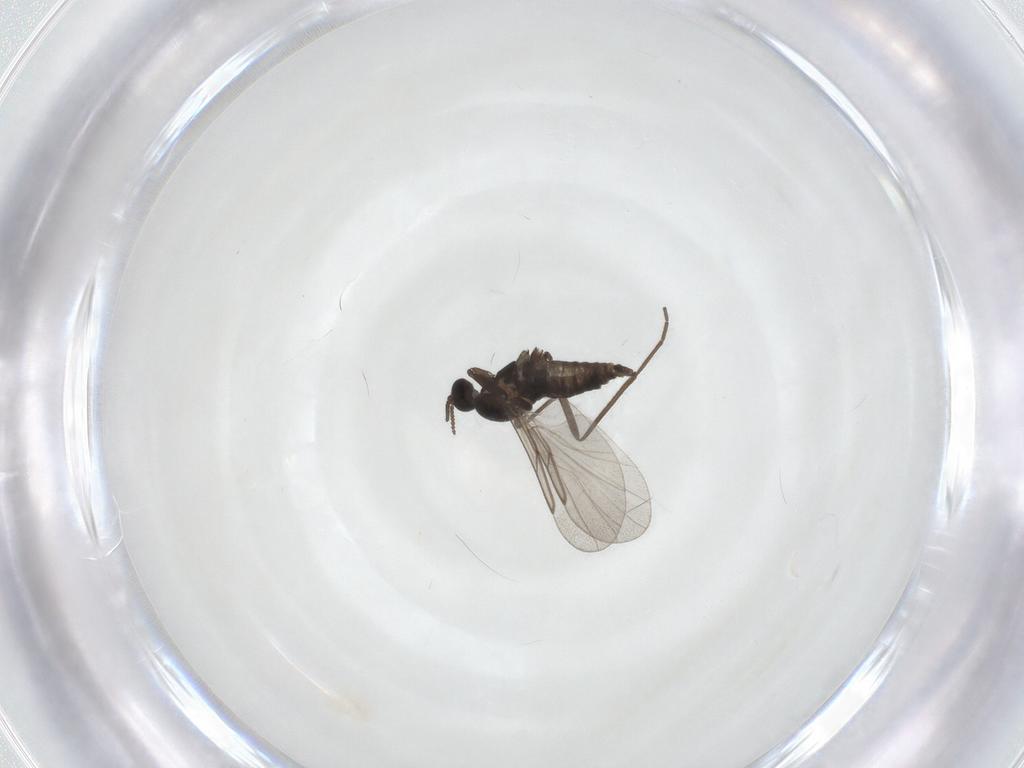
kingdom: Animalia
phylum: Arthropoda
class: Insecta
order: Diptera
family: Cecidomyiidae
